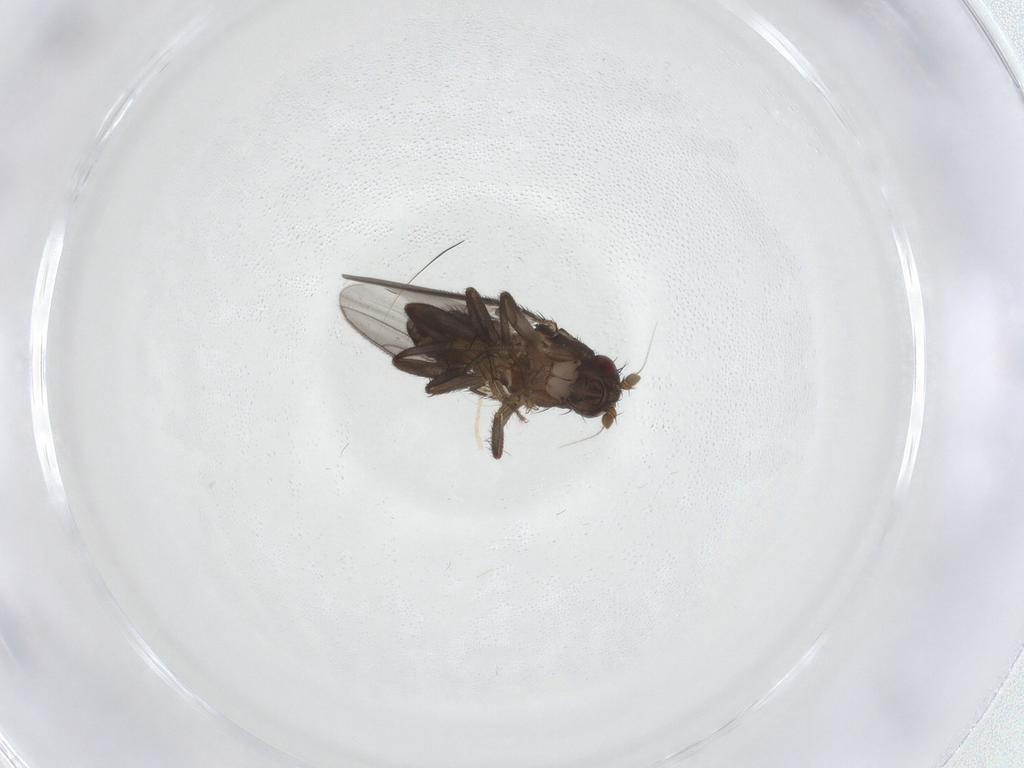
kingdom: Animalia
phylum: Arthropoda
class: Insecta
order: Diptera
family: Sphaeroceridae
